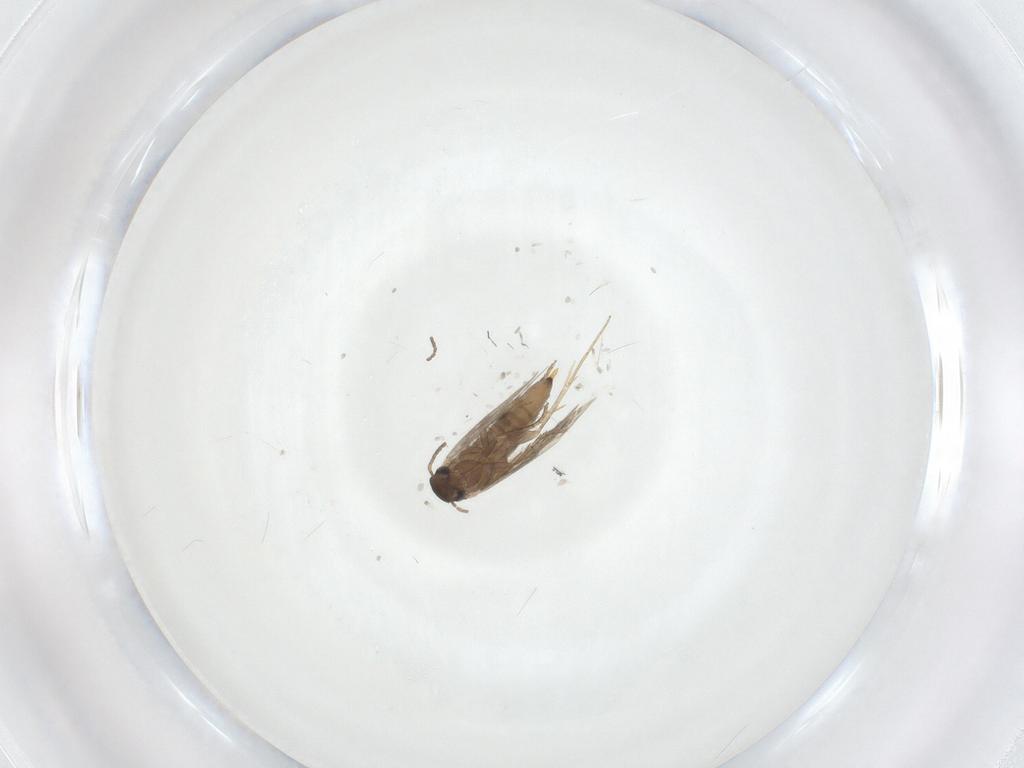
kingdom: Animalia
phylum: Arthropoda
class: Insecta
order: Lepidoptera
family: Heliozelidae
